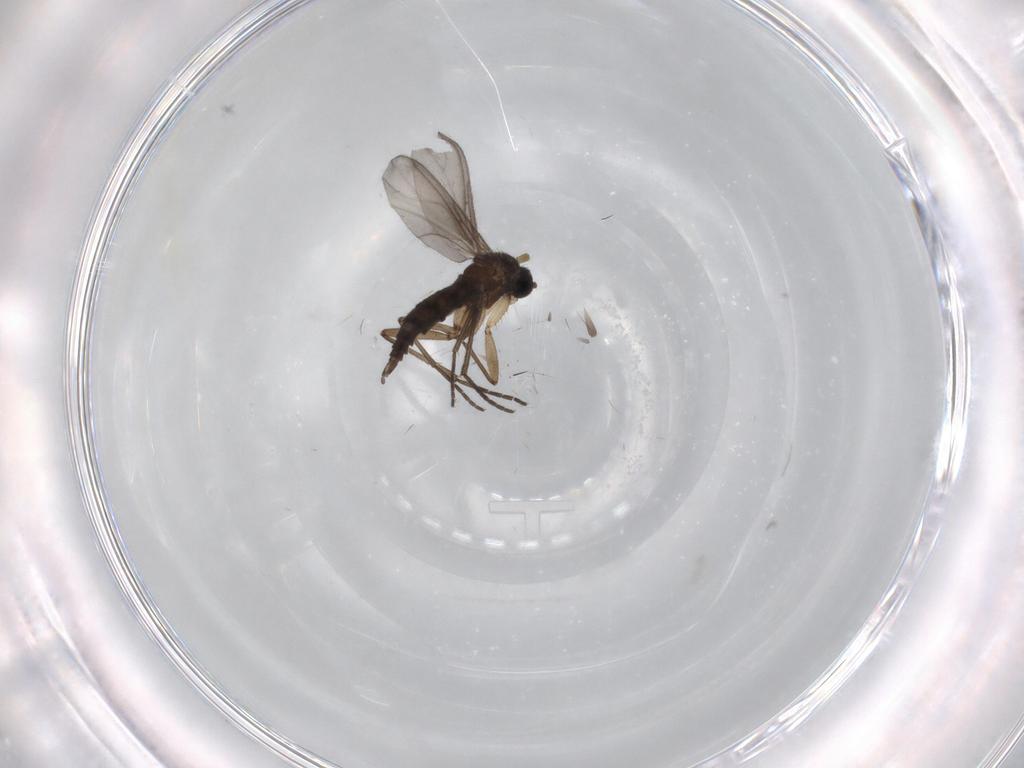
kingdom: Animalia
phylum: Arthropoda
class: Insecta
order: Diptera
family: Chironomidae
